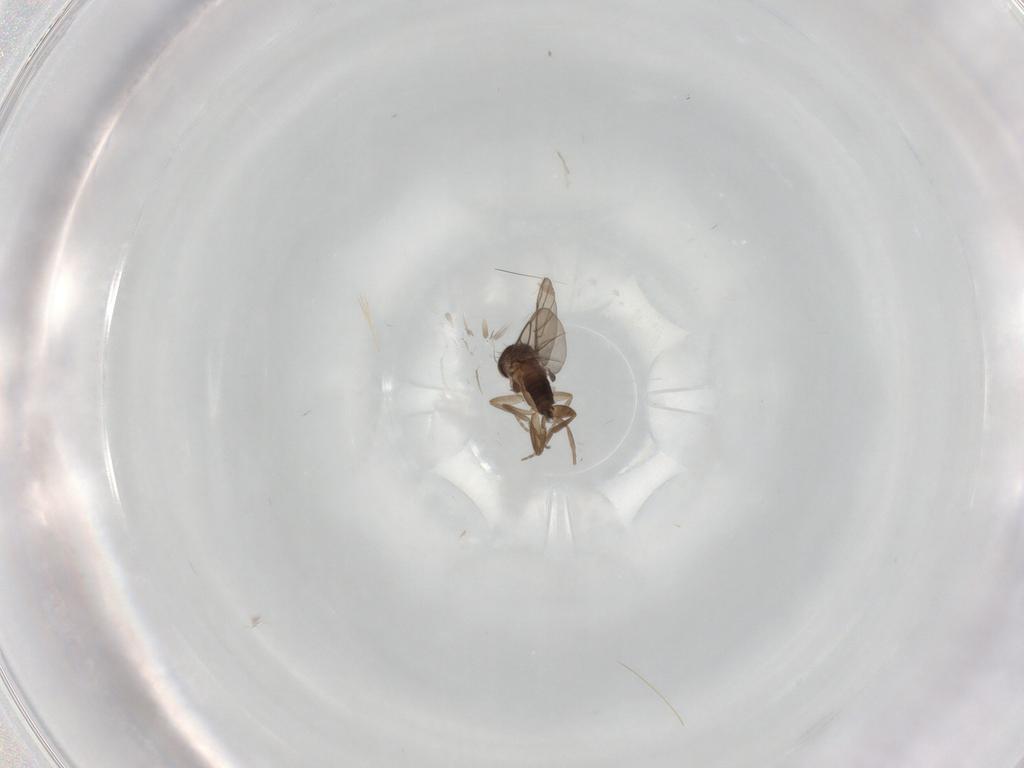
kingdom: Animalia
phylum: Arthropoda
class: Insecta
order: Diptera
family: Phoridae
